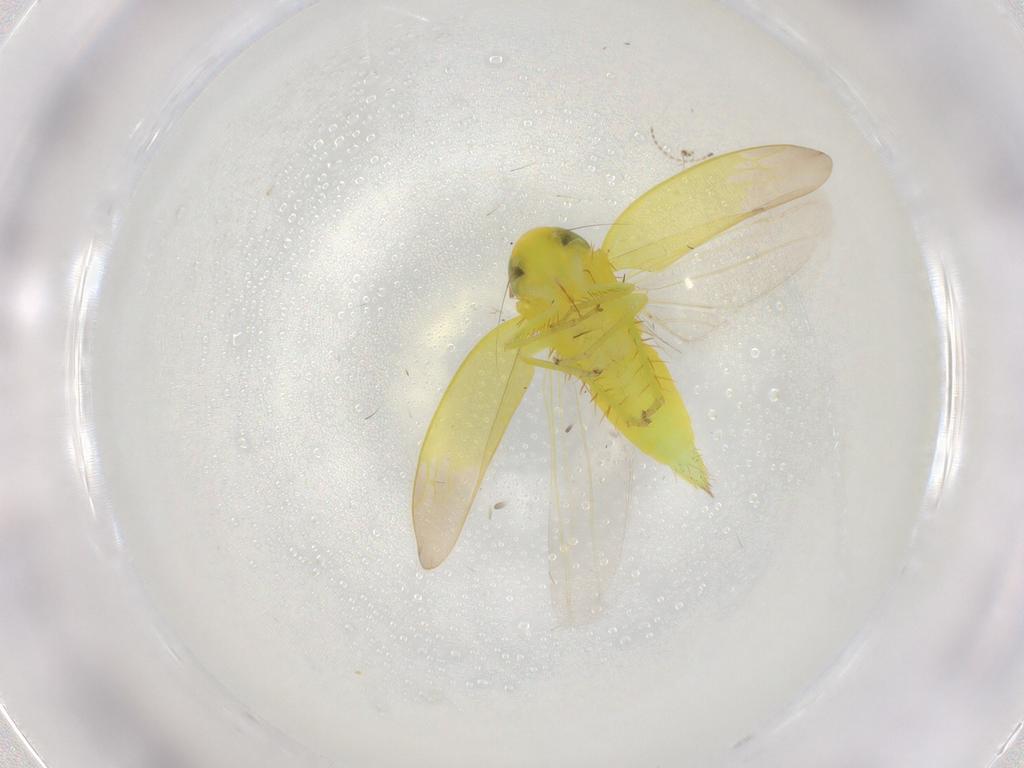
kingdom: Animalia
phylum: Arthropoda
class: Insecta
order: Hemiptera
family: Cicadellidae
